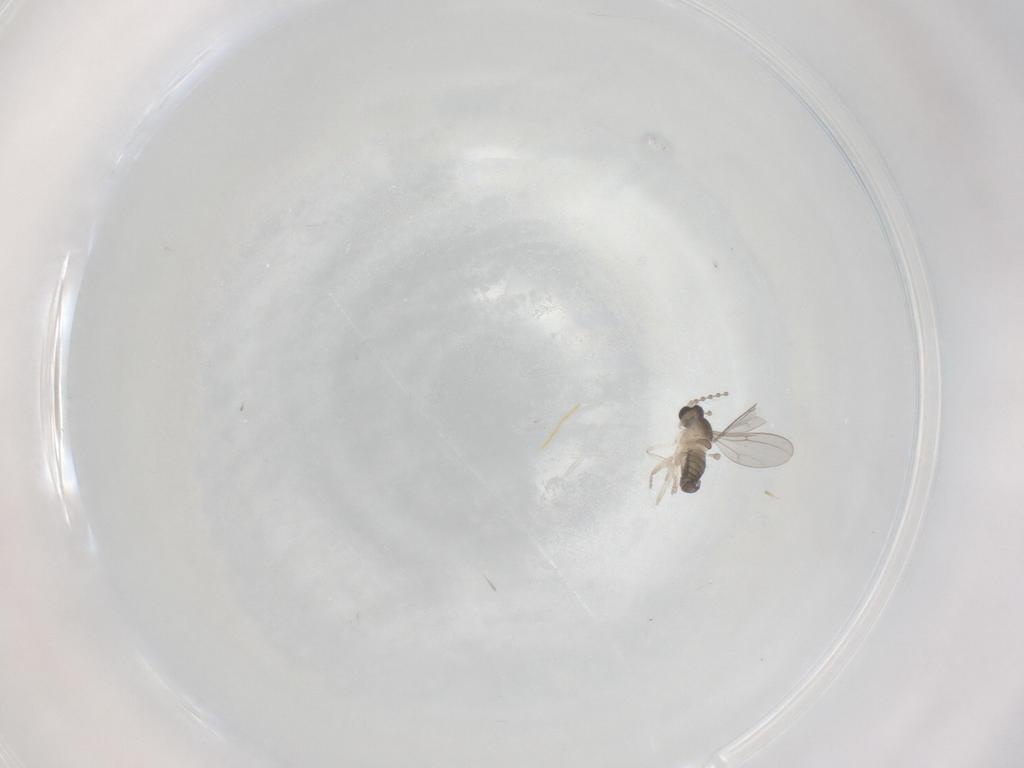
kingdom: Animalia
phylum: Arthropoda
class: Insecta
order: Diptera
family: Cecidomyiidae
